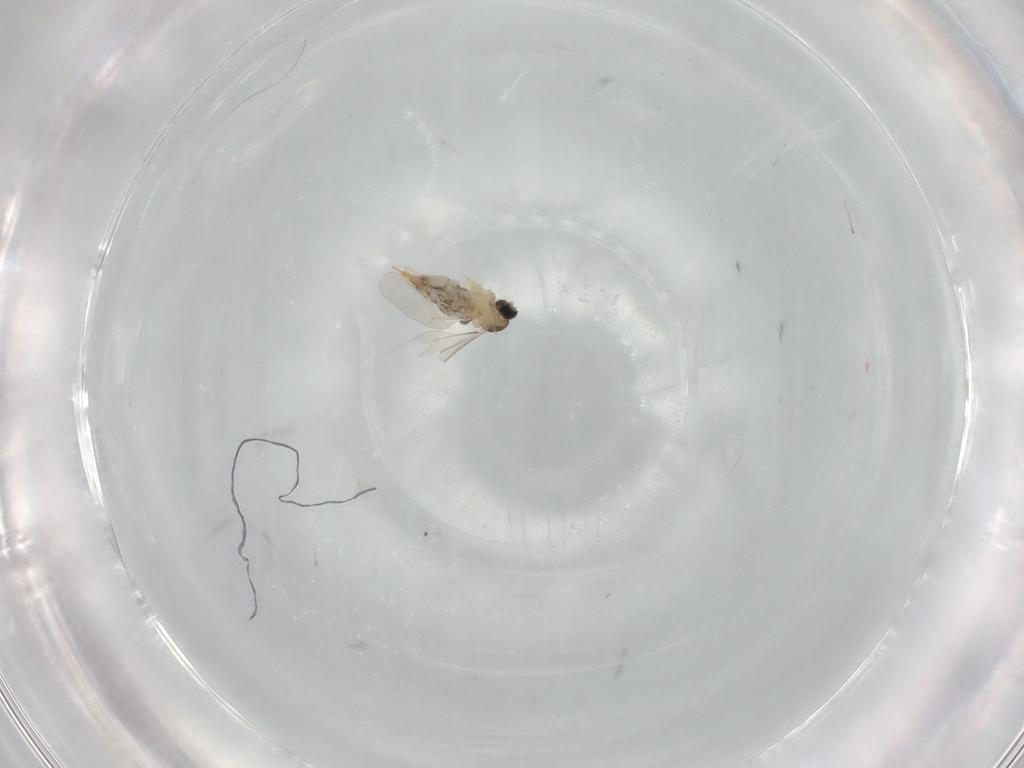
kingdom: Animalia
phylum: Arthropoda
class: Insecta
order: Diptera
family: Cecidomyiidae
